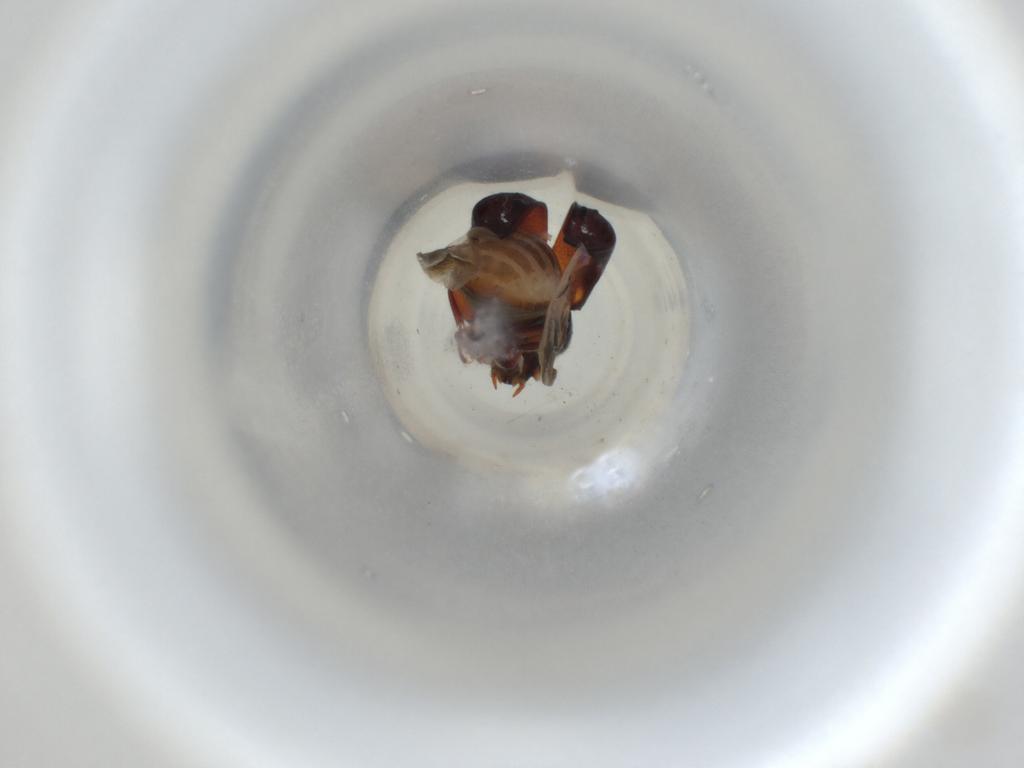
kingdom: Animalia
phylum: Arthropoda
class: Insecta
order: Coleoptera
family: Bostrichidae
